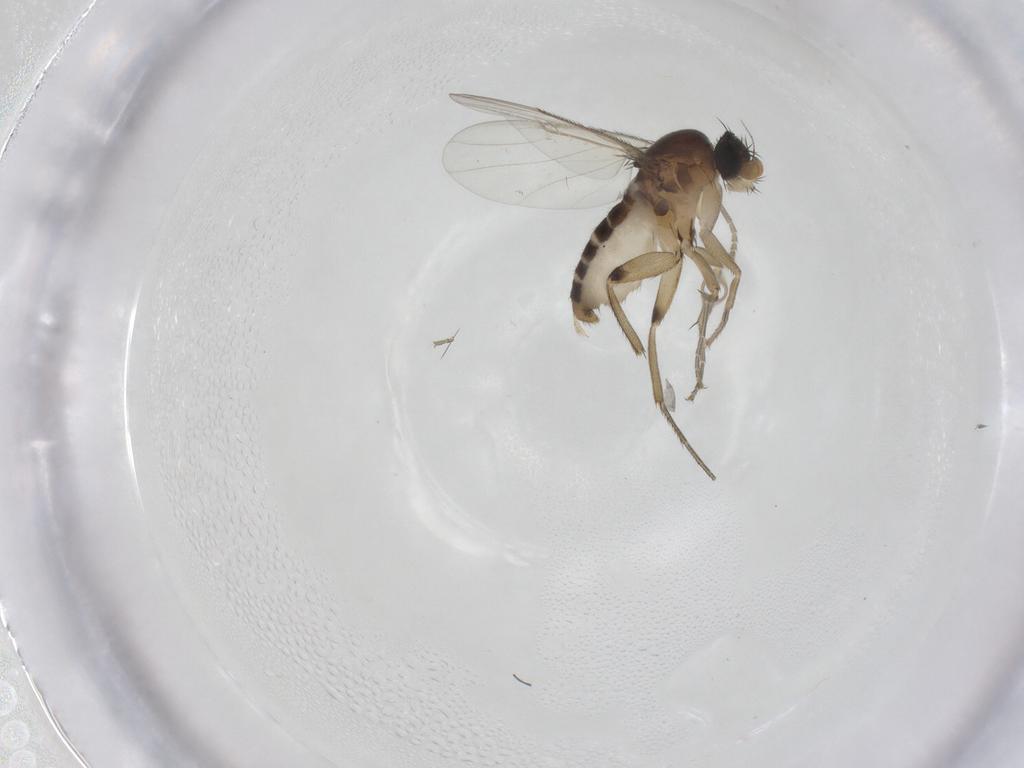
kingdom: Animalia
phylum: Arthropoda
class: Insecta
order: Diptera
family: Phoridae
